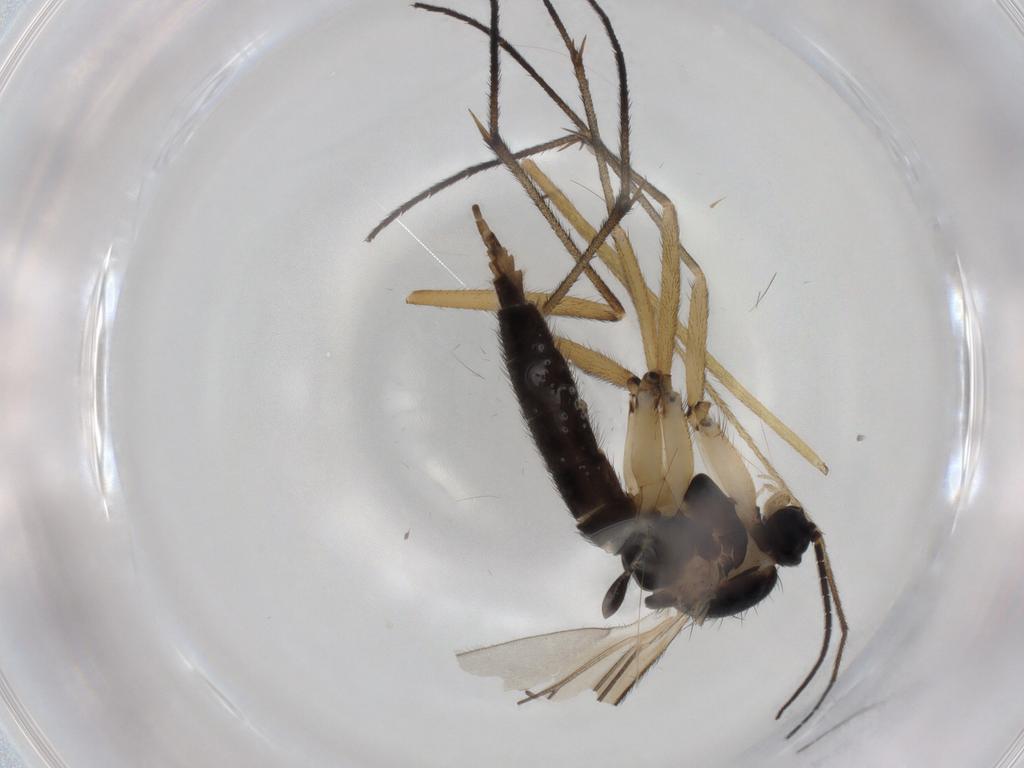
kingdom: Animalia
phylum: Arthropoda
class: Insecta
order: Diptera
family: Sciaridae
